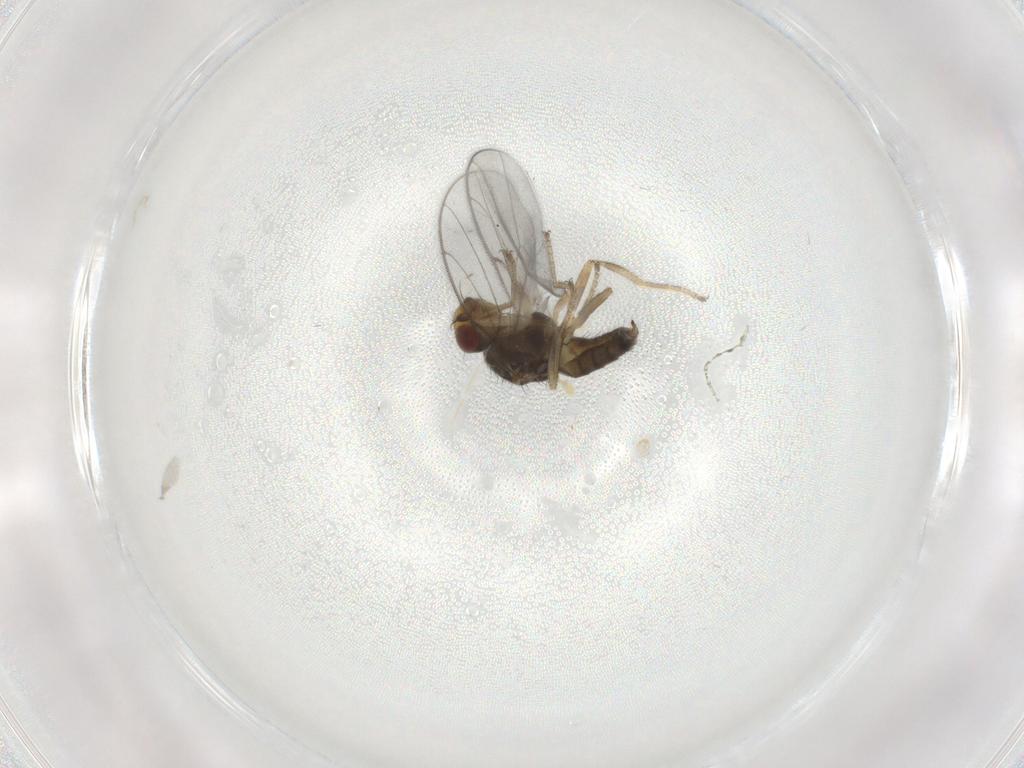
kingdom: Animalia
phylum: Arthropoda
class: Insecta
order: Diptera
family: Chloropidae
